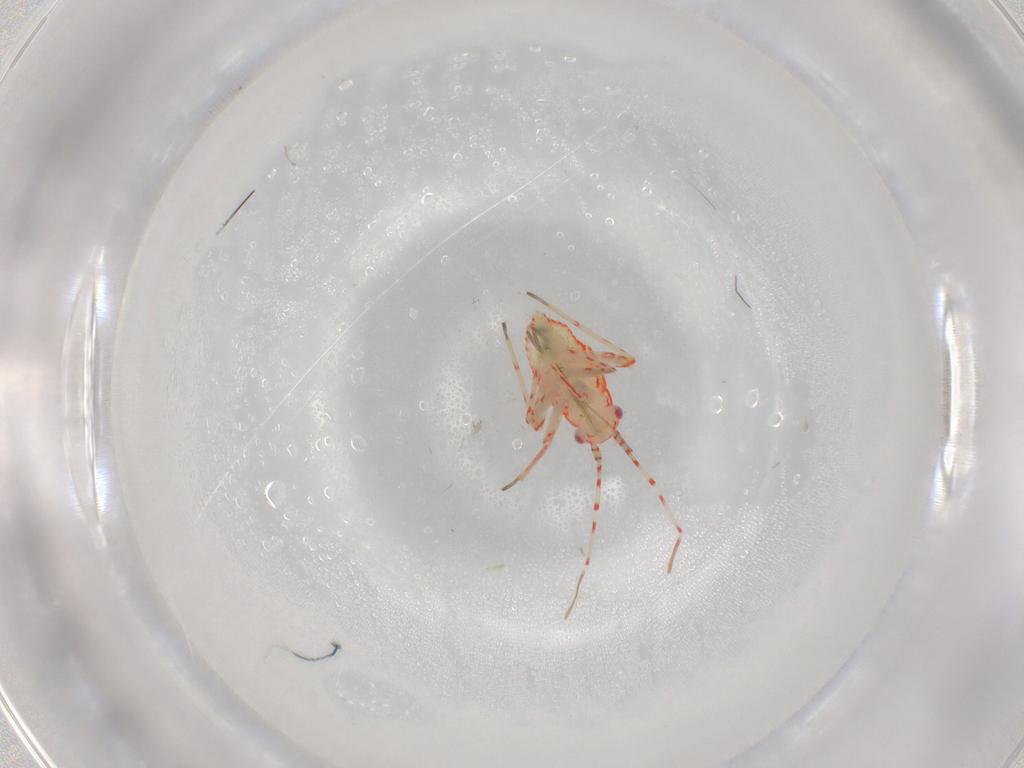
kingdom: Animalia
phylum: Arthropoda
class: Insecta
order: Hemiptera
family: Miridae
